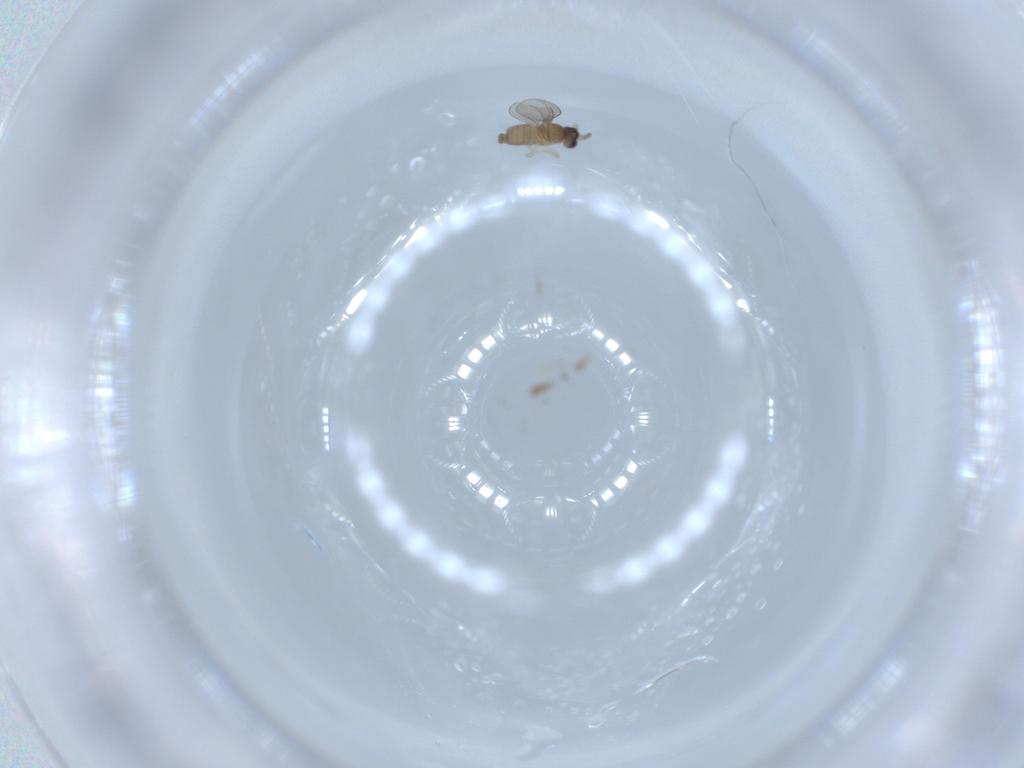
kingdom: Animalia
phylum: Arthropoda
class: Insecta
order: Diptera
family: Cecidomyiidae
